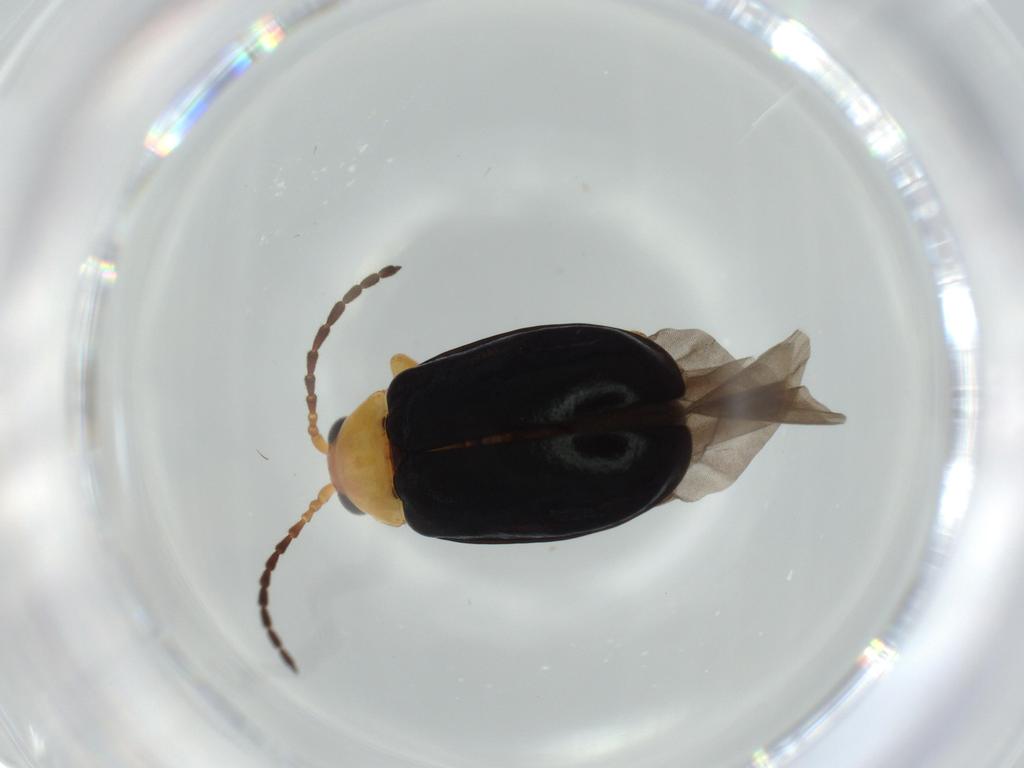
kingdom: Animalia
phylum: Arthropoda
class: Insecta
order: Coleoptera
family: Chrysomelidae
